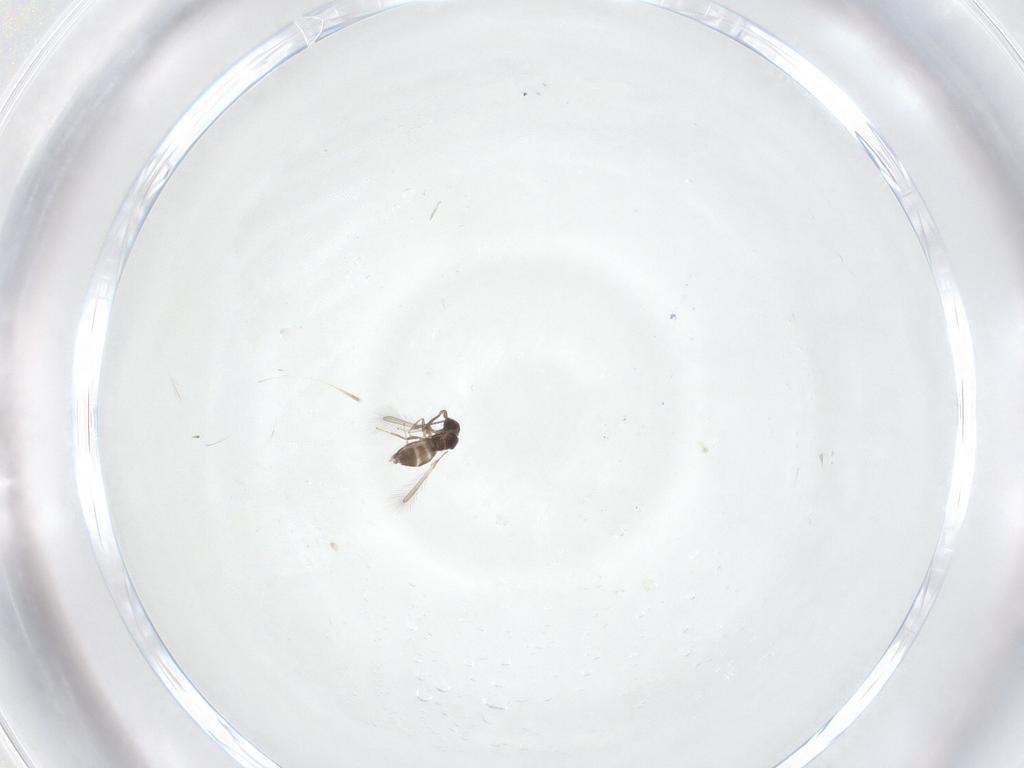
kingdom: Animalia
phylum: Arthropoda
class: Insecta
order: Hymenoptera
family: Mymaridae
